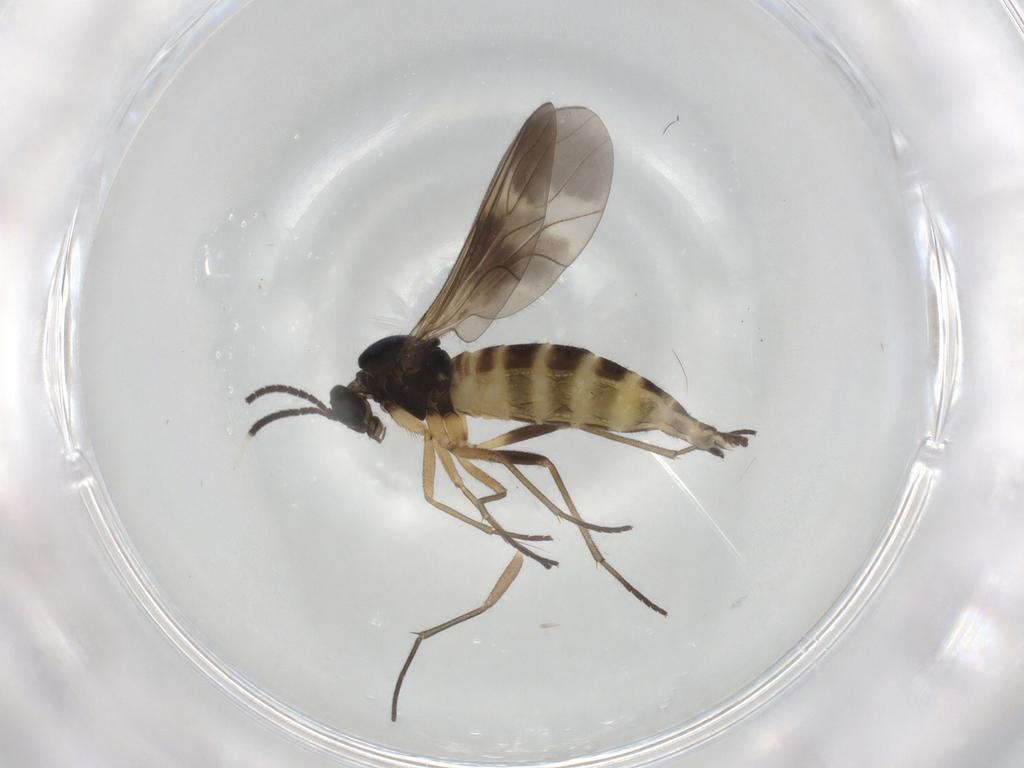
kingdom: Animalia
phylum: Arthropoda
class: Insecta
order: Diptera
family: Sciaridae
